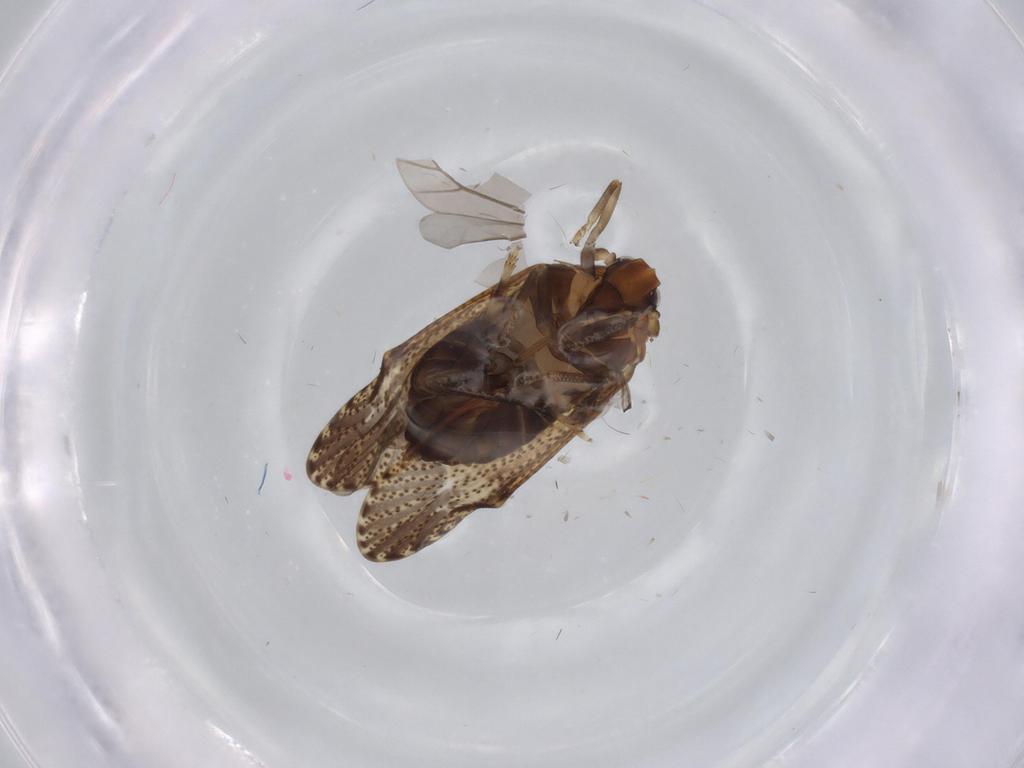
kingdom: Animalia
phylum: Arthropoda
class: Insecta
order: Hemiptera
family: Delphacidae
